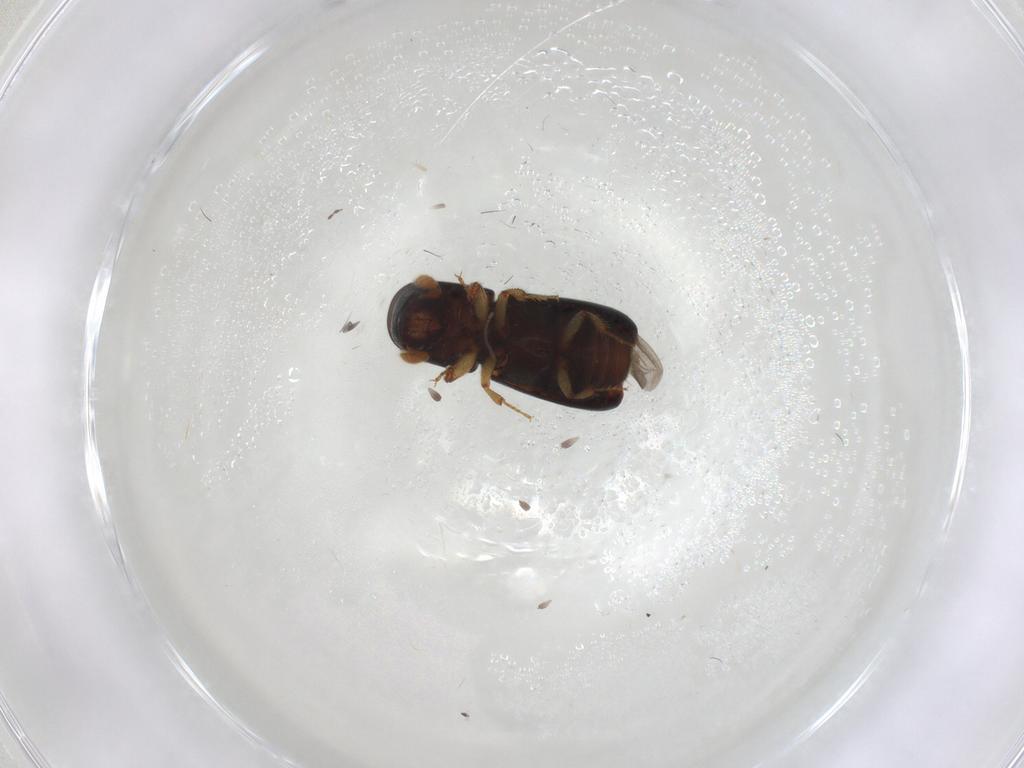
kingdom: Animalia
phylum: Arthropoda
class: Insecta
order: Coleoptera
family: Curculionidae
